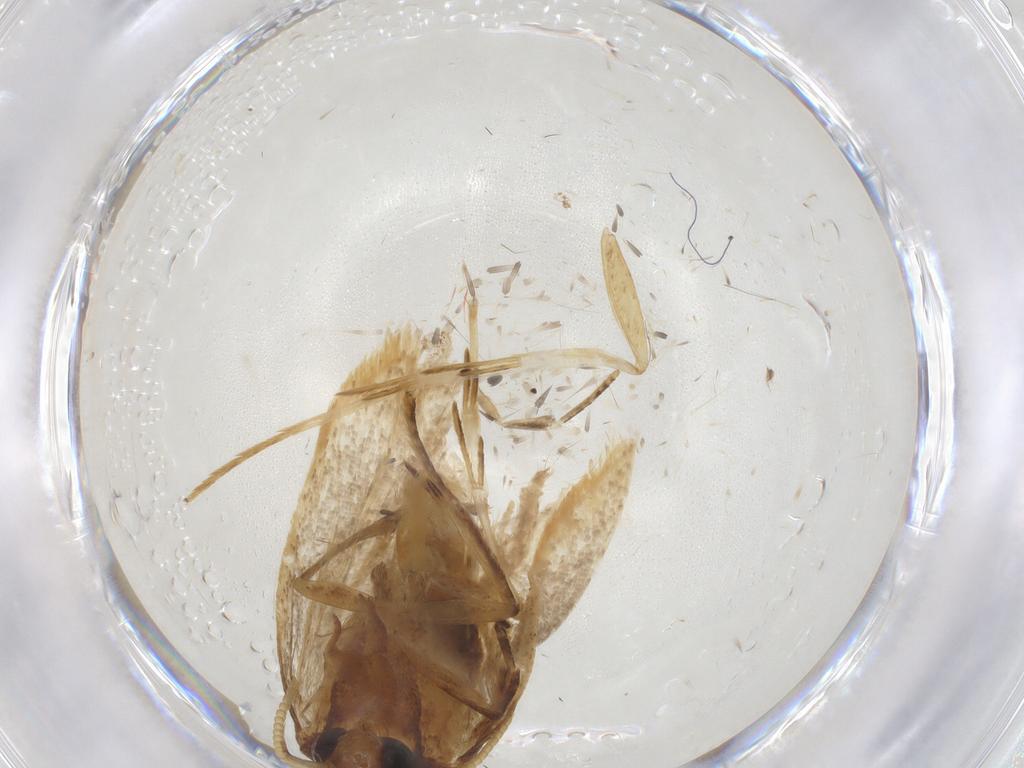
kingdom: Animalia
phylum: Arthropoda
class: Insecta
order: Lepidoptera
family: Lecithoceridae
